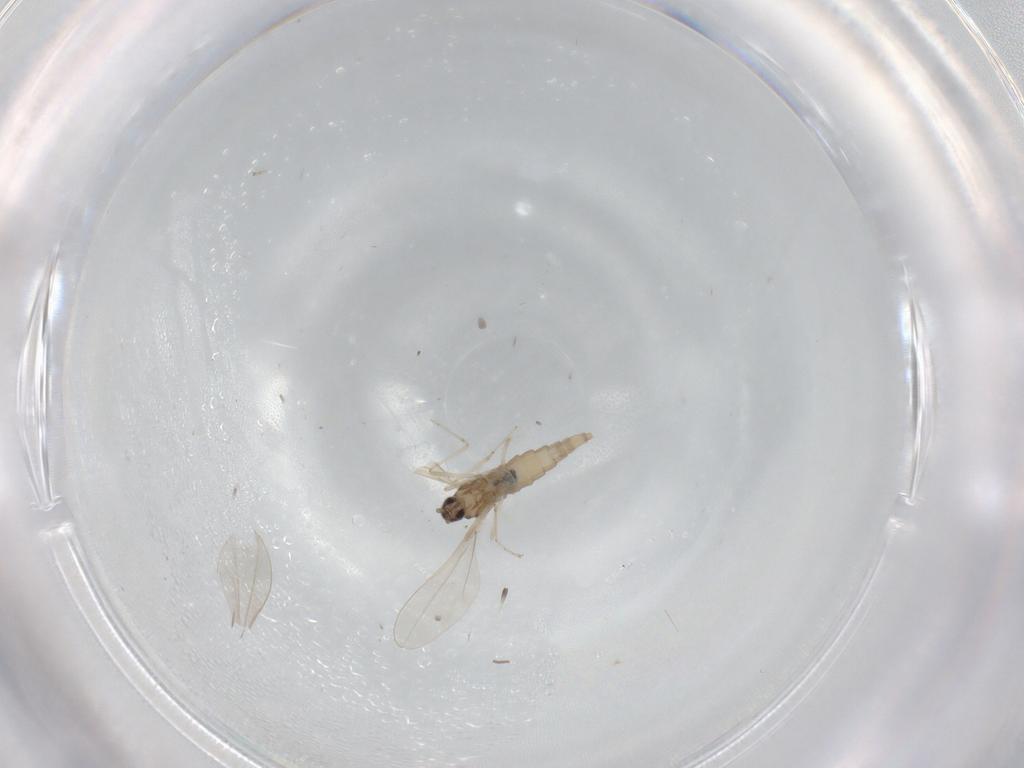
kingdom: Animalia
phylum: Arthropoda
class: Insecta
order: Diptera
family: Cecidomyiidae
